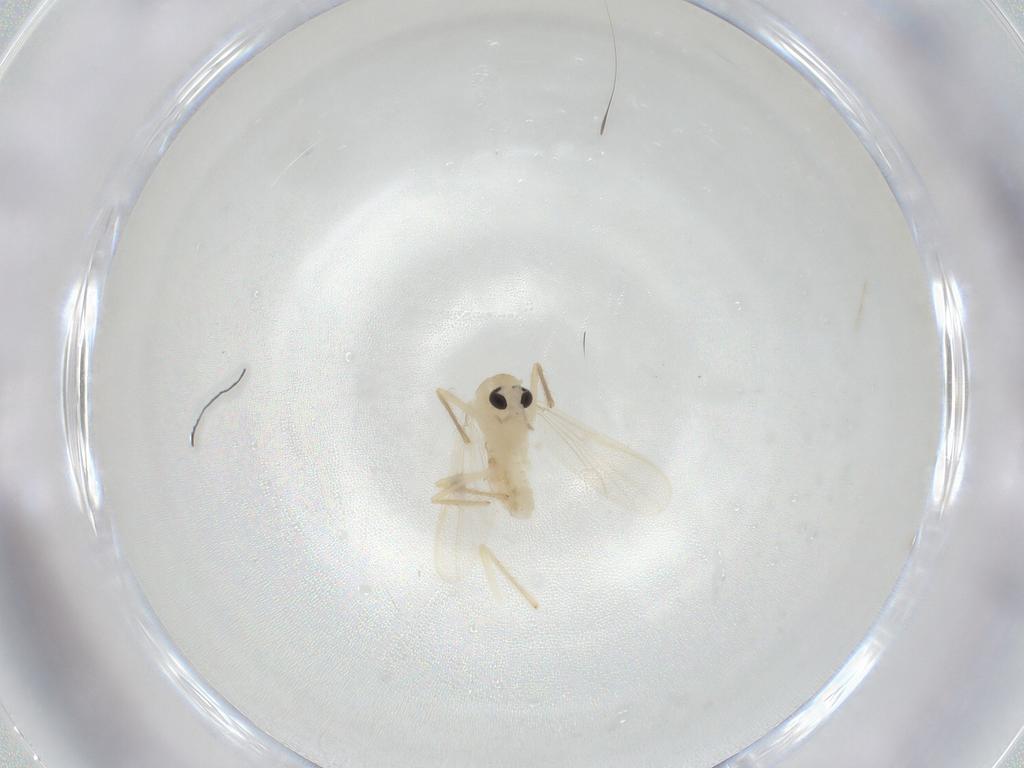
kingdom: Animalia
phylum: Arthropoda
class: Insecta
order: Diptera
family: Chironomidae
